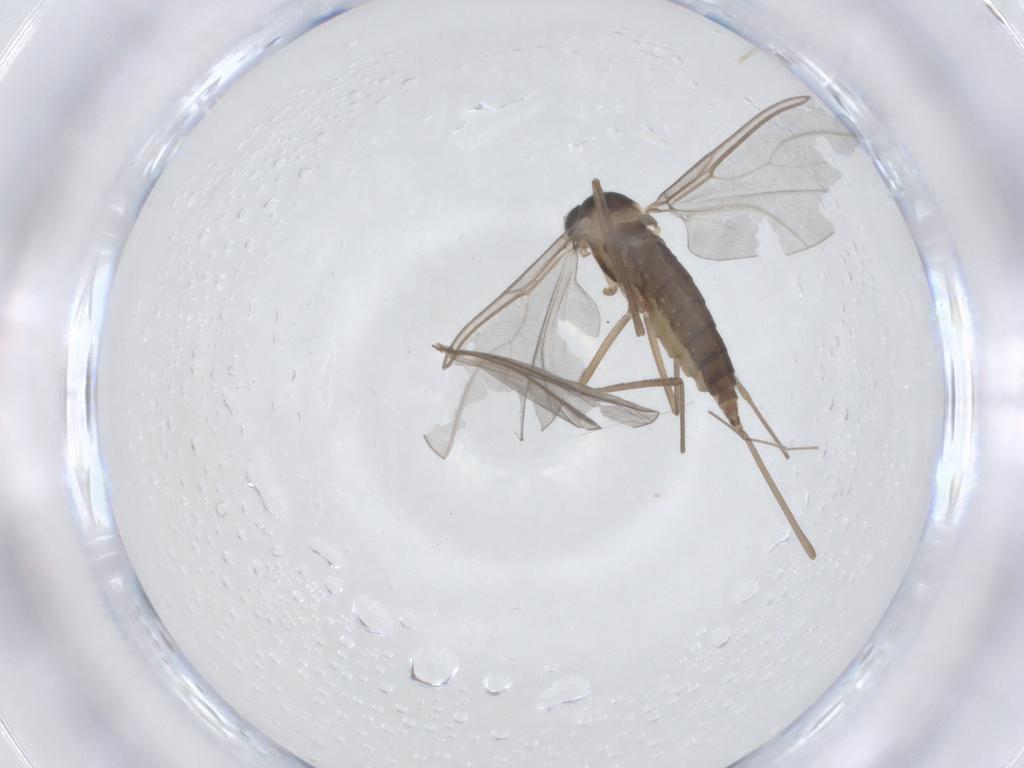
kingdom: Animalia
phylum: Arthropoda
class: Insecta
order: Diptera
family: Cecidomyiidae
